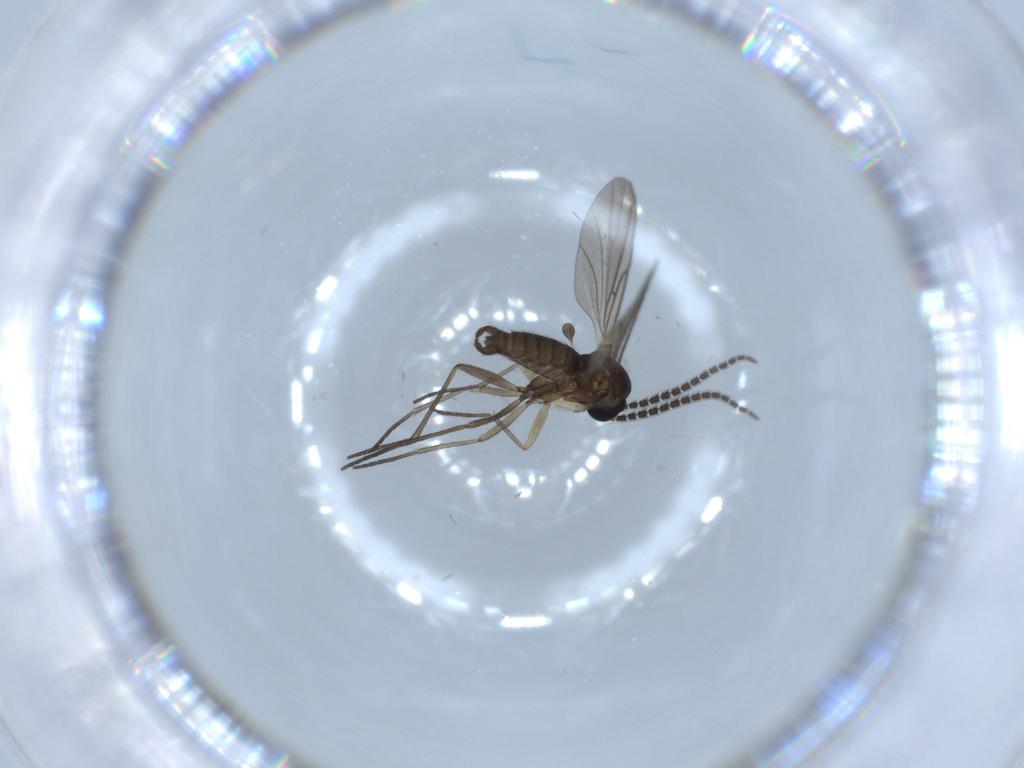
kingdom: Animalia
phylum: Arthropoda
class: Insecta
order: Diptera
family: Sciaridae
